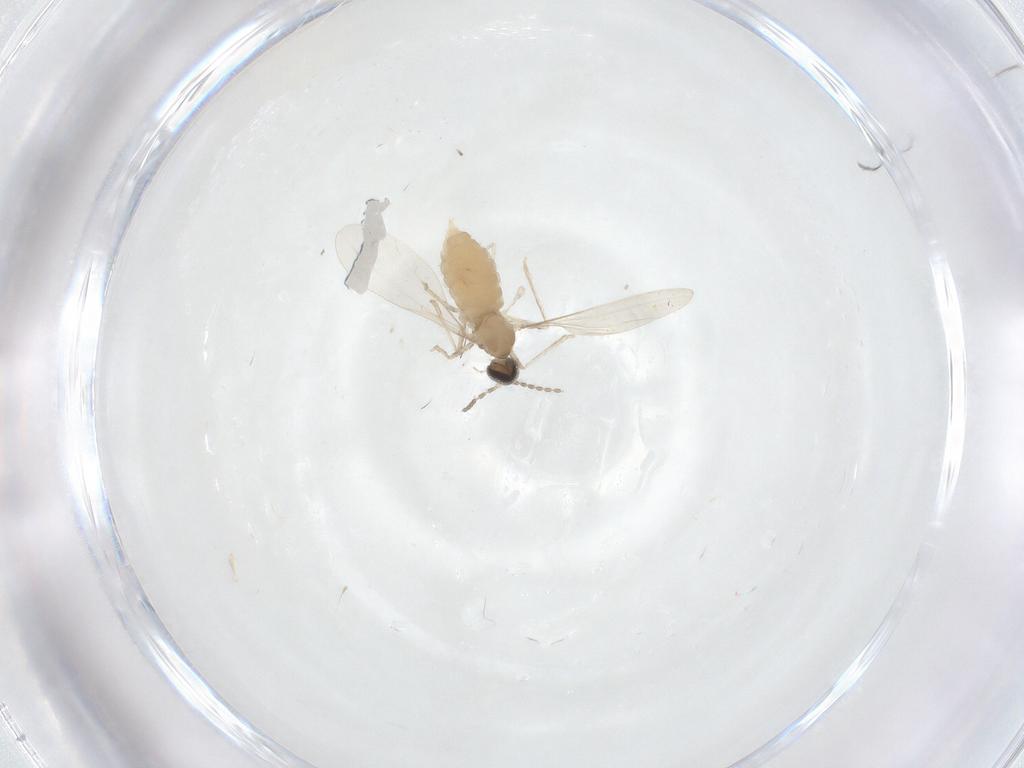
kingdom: Animalia
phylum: Arthropoda
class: Insecta
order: Diptera
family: Cecidomyiidae
